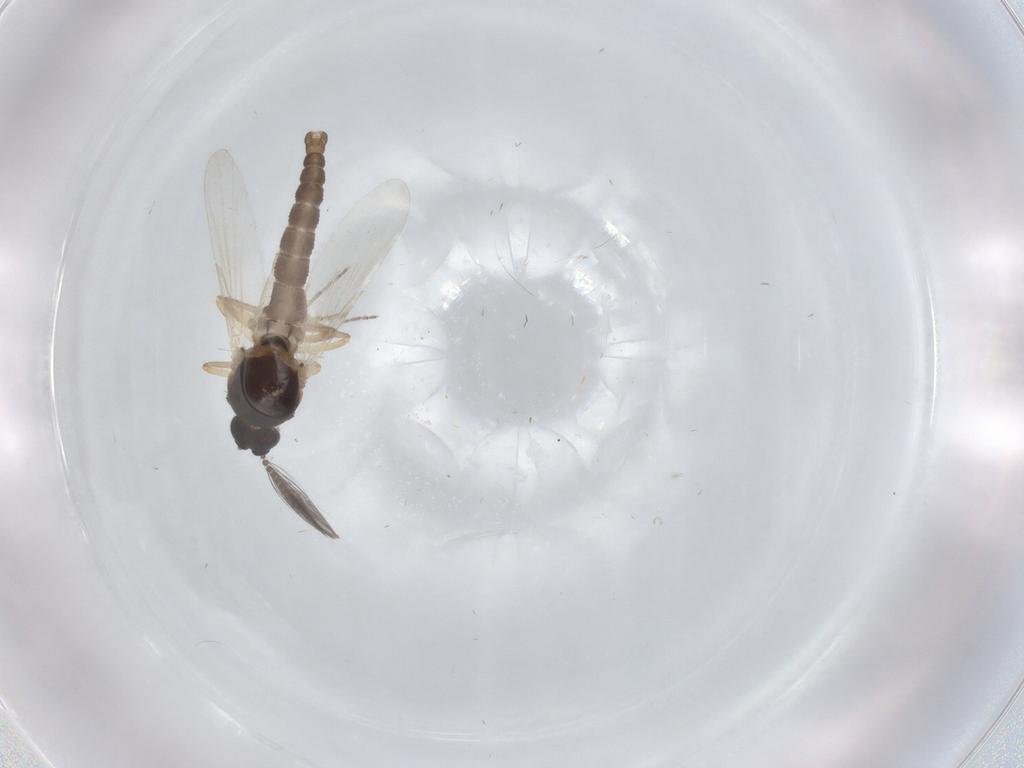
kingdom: Animalia
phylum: Arthropoda
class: Insecta
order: Diptera
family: Ceratopogonidae
